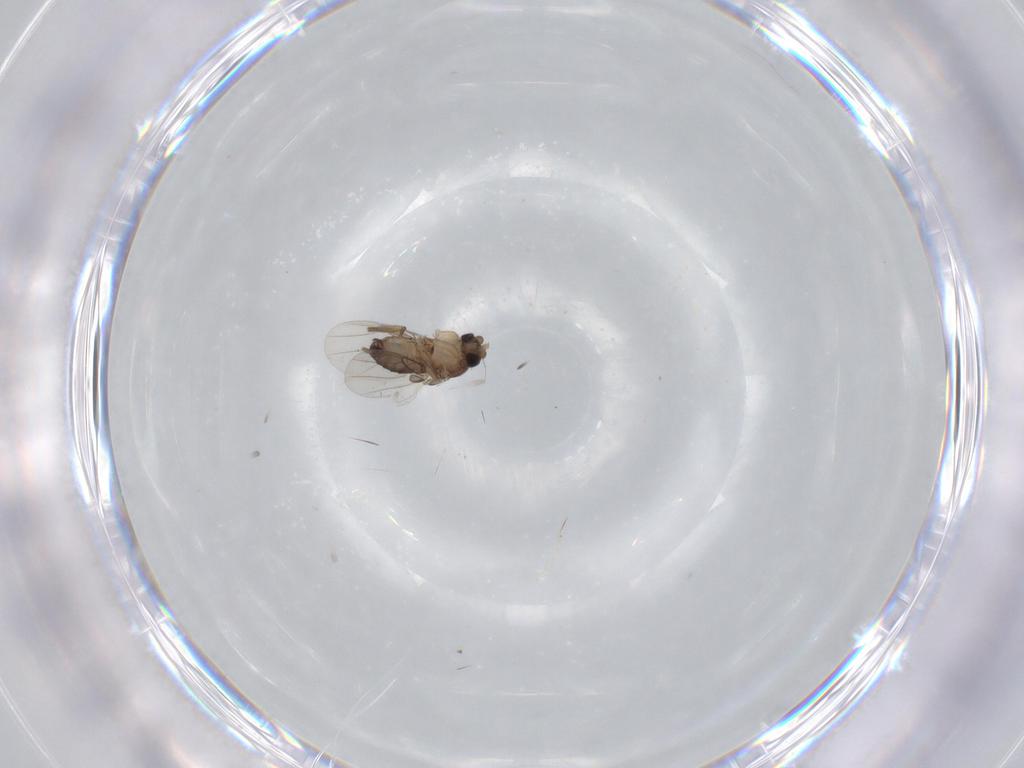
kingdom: Animalia
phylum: Arthropoda
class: Insecta
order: Diptera
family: Phoridae
